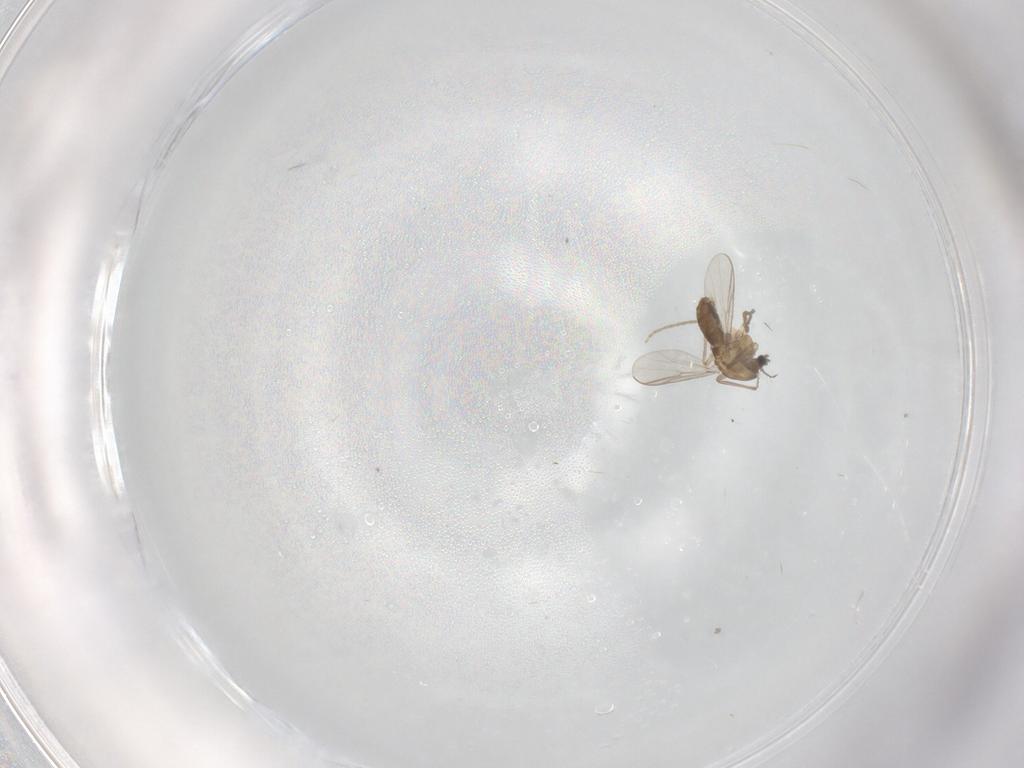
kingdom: Animalia
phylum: Arthropoda
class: Insecta
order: Diptera
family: Chironomidae
